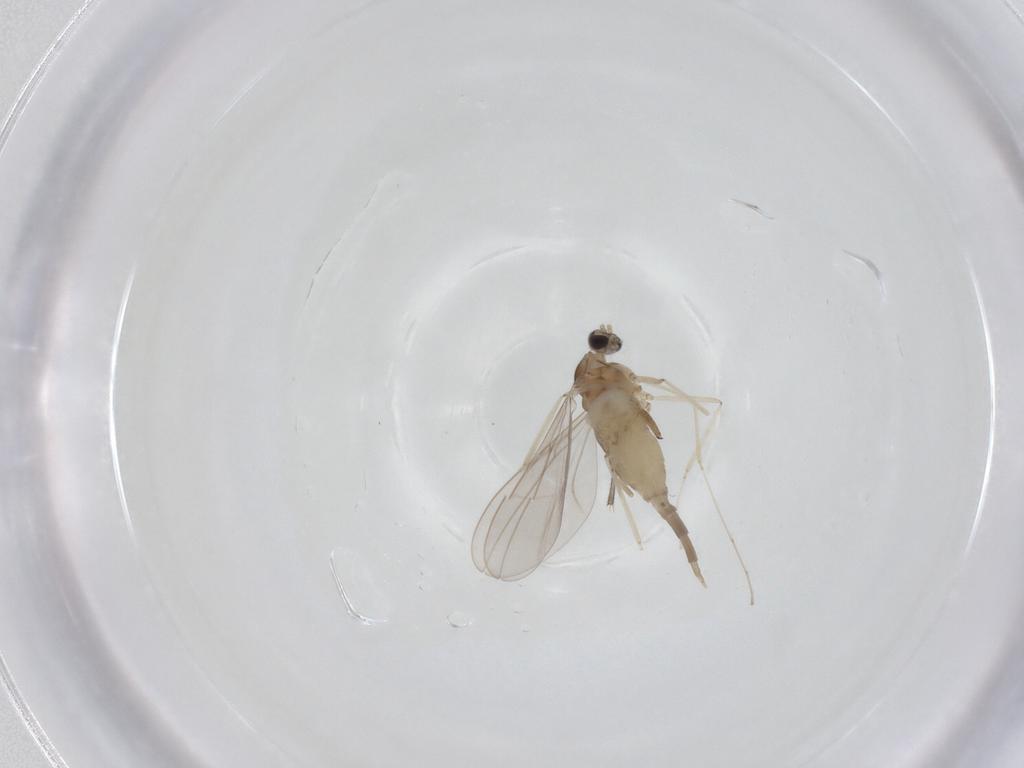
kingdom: Animalia
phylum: Arthropoda
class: Insecta
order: Diptera
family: Cecidomyiidae
